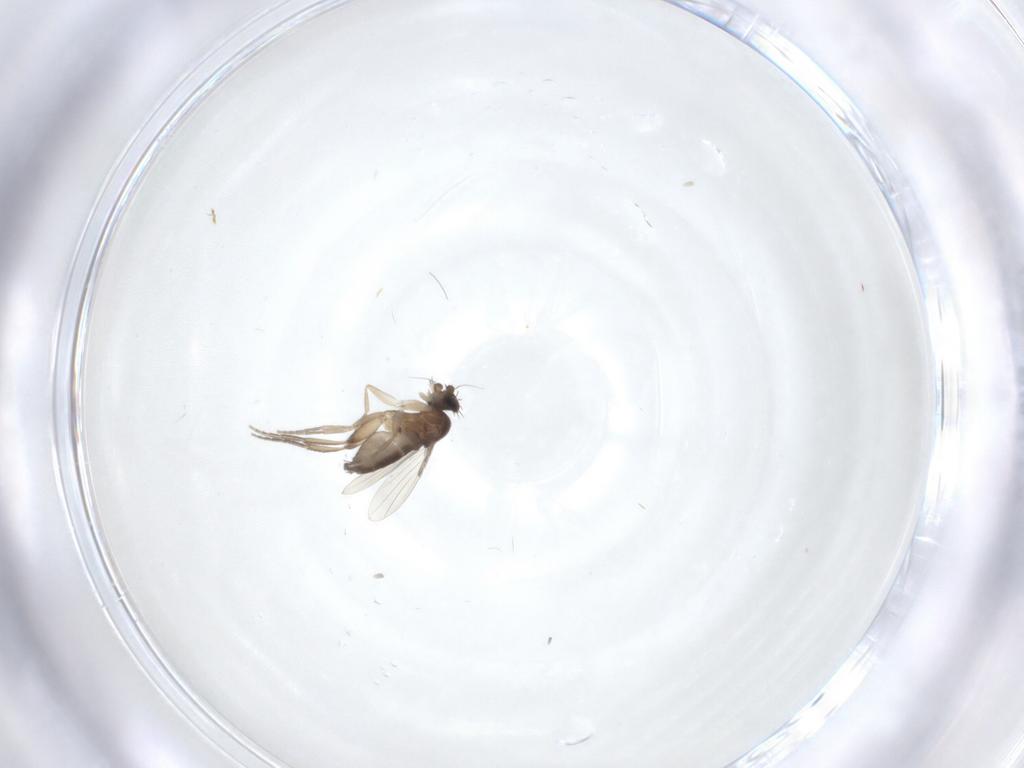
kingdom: Animalia
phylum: Arthropoda
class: Insecta
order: Diptera
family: Phoridae
